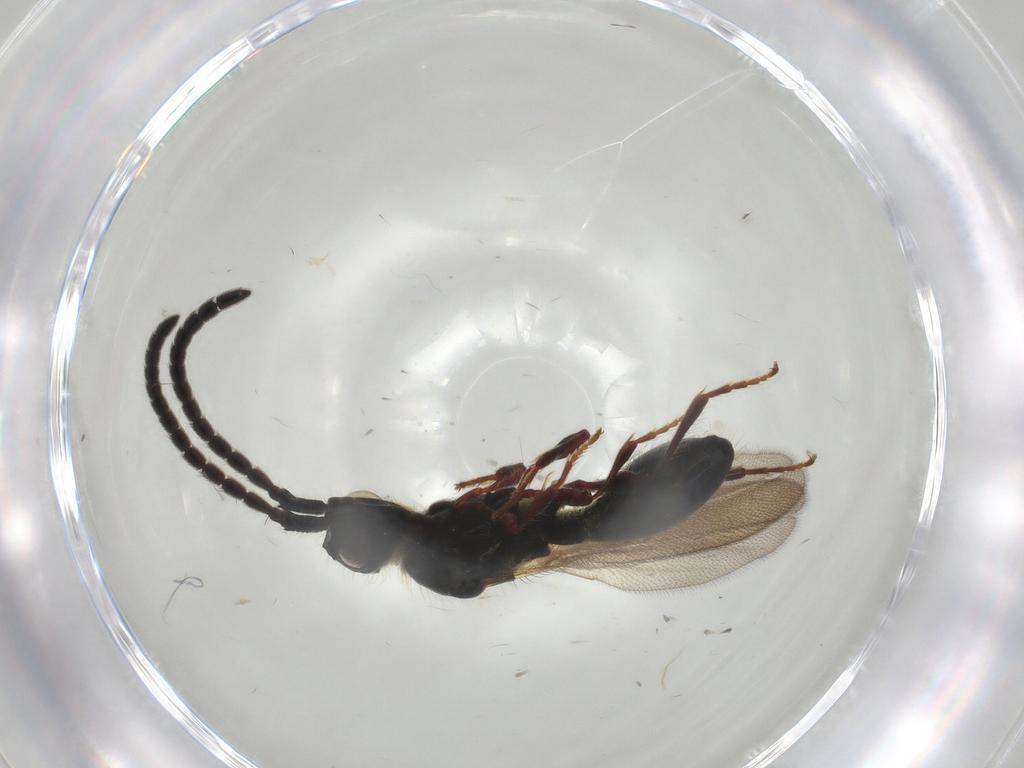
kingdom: Animalia
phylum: Arthropoda
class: Insecta
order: Hymenoptera
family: Diapriidae
